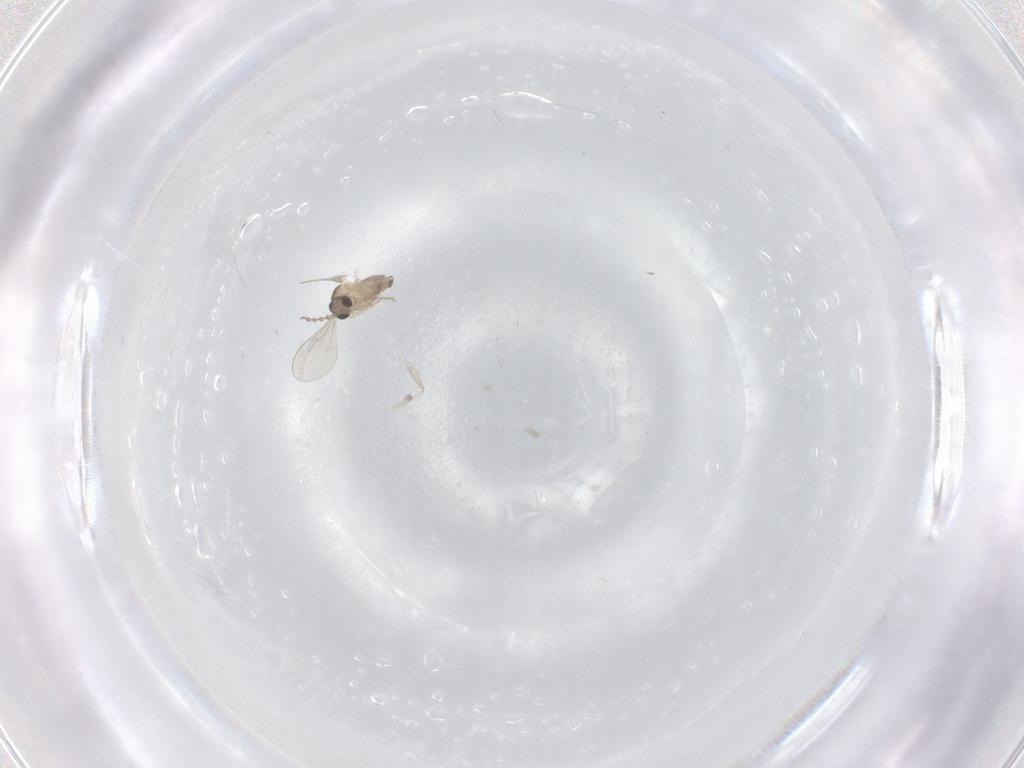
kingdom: Animalia
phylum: Arthropoda
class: Insecta
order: Diptera
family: Cecidomyiidae
